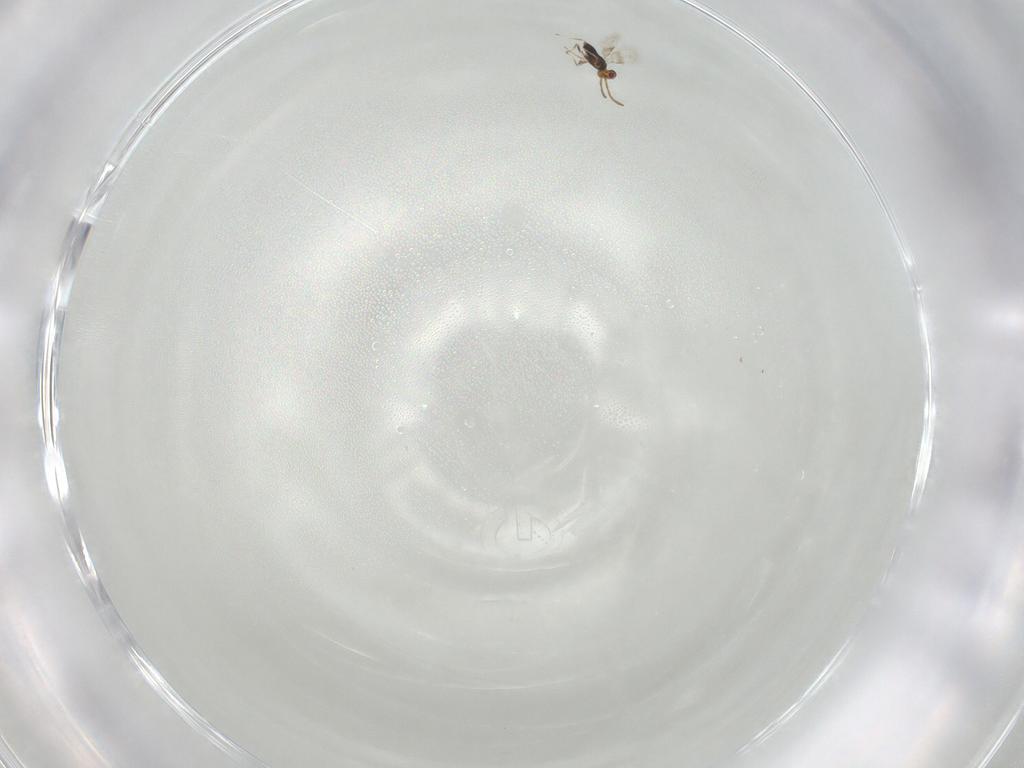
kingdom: Animalia
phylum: Arthropoda
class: Insecta
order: Hymenoptera
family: Azotidae
